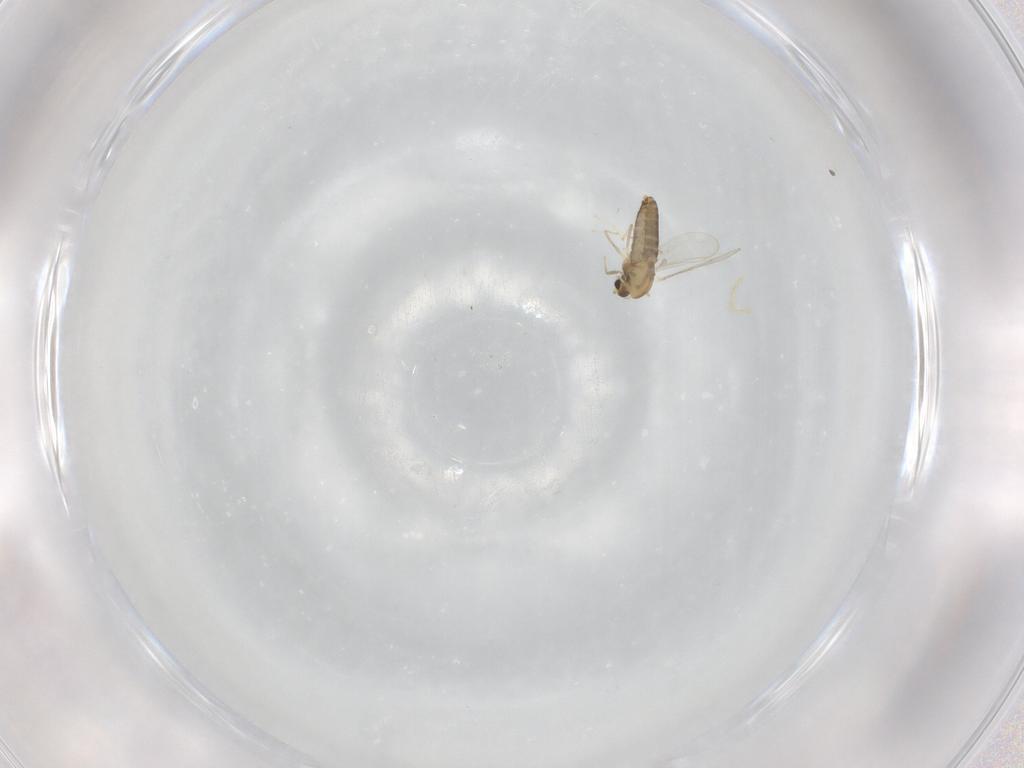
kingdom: Animalia
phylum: Arthropoda
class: Insecta
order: Diptera
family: Chironomidae
